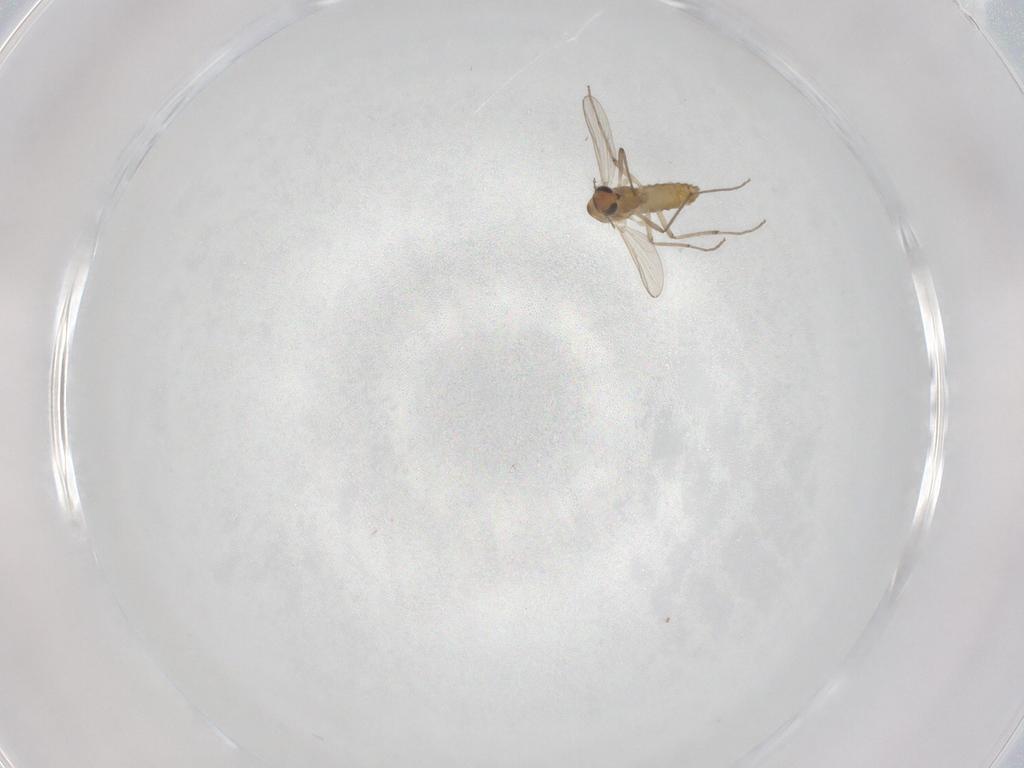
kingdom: Animalia
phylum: Arthropoda
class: Insecta
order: Diptera
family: Chironomidae
